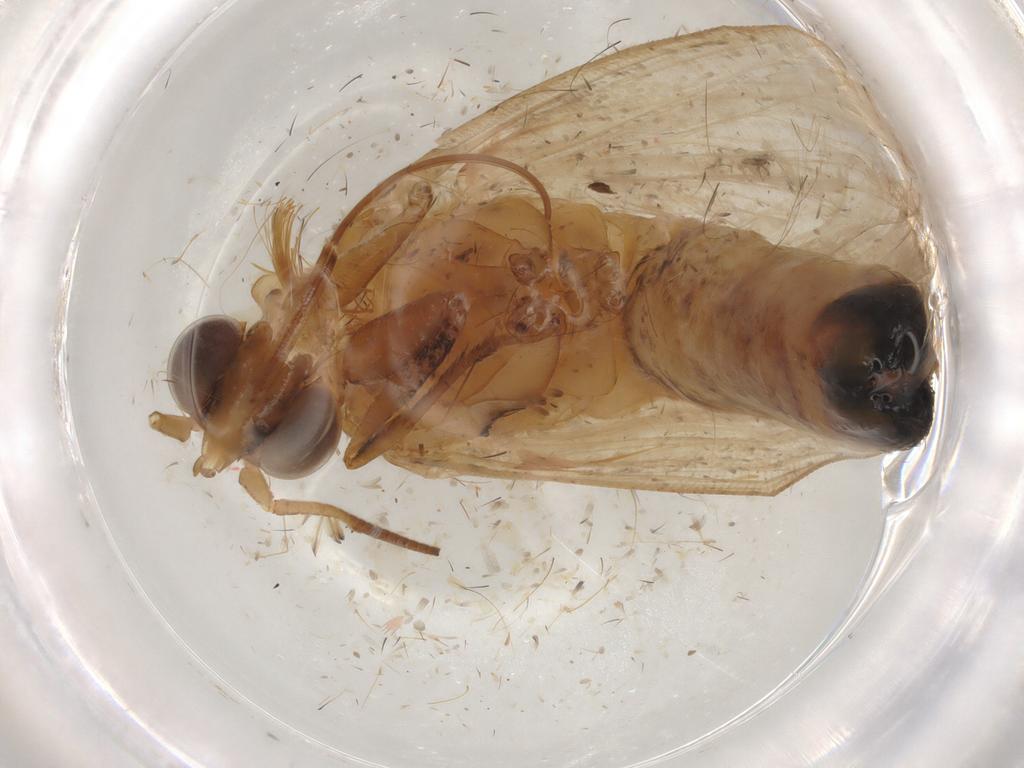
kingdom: Animalia
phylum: Arthropoda
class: Insecta
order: Lepidoptera
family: Pyralidae
